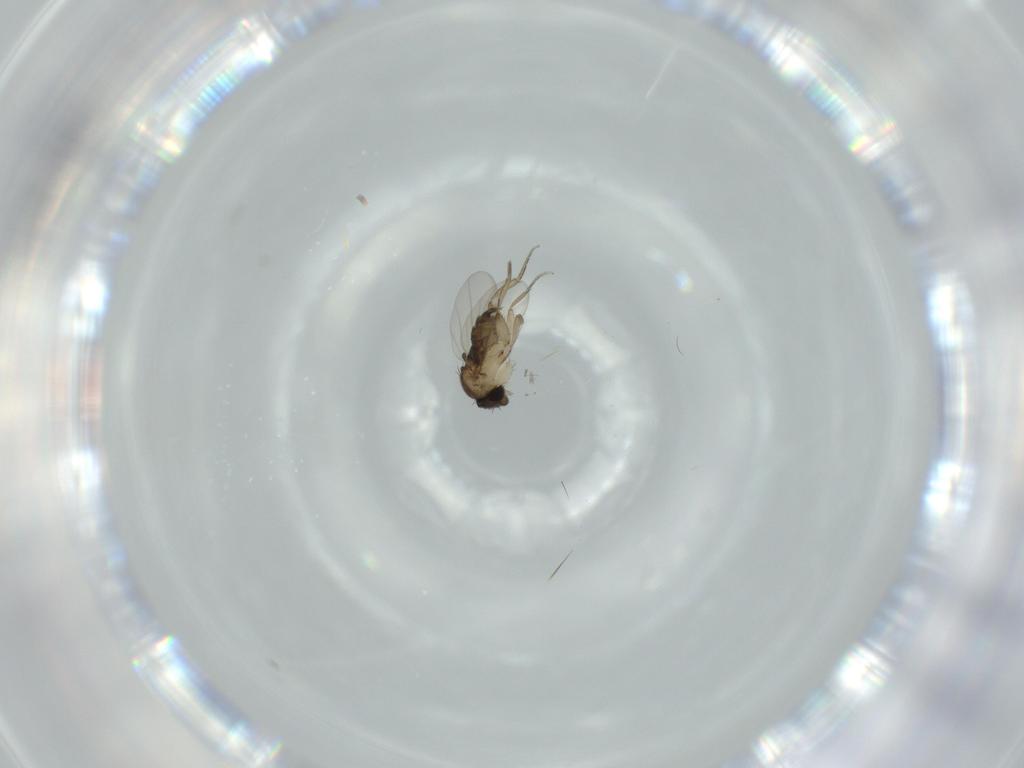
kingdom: Animalia
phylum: Arthropoda
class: Insecta
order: Diptera
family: Phoridae
